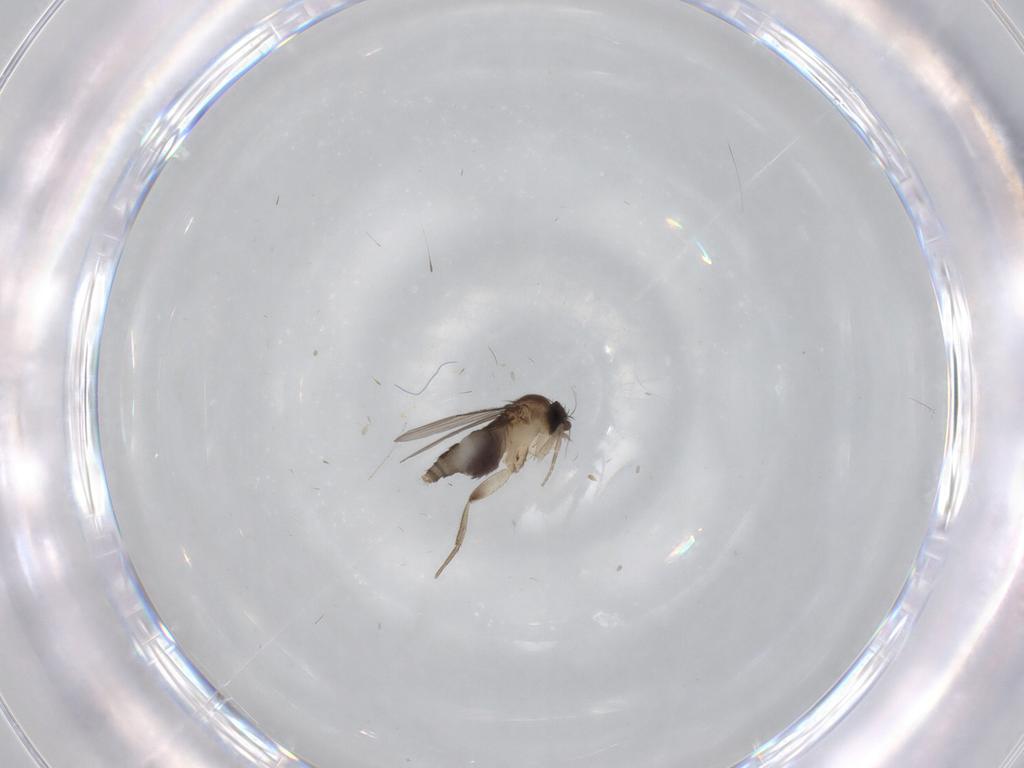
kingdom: Animalia
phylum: Arthropoda
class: Insecta
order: Diptera
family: Phoridae
